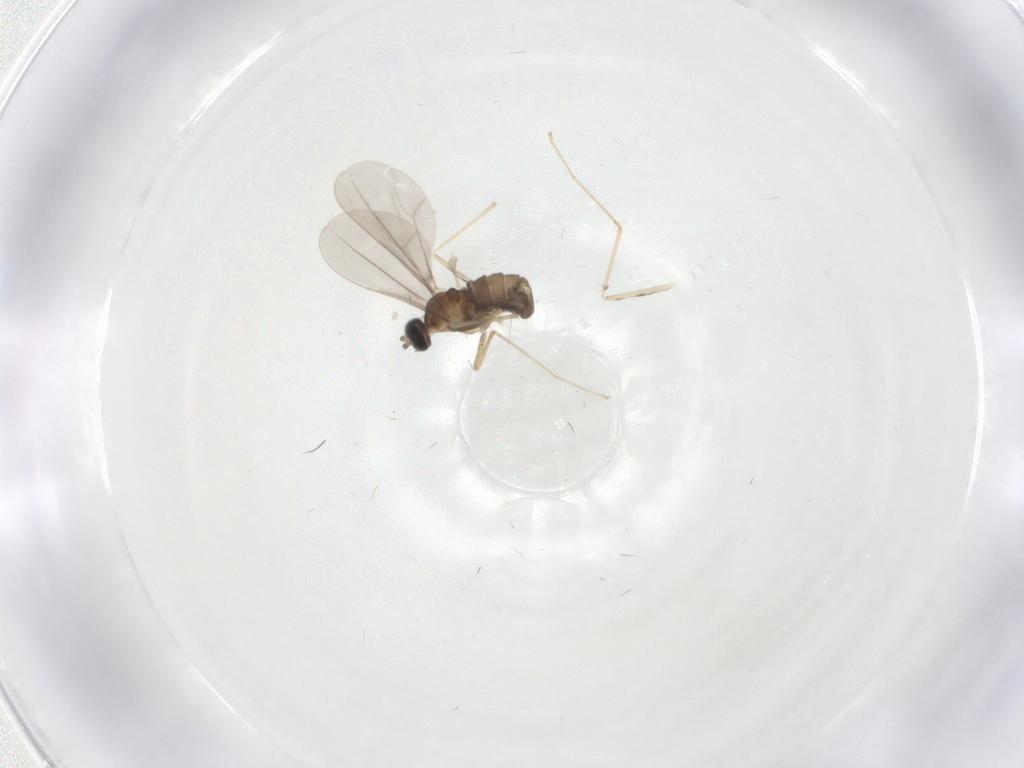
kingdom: Animalia
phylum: Arthropoda
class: Insecta
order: Diptera
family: Cecidomyiidae
